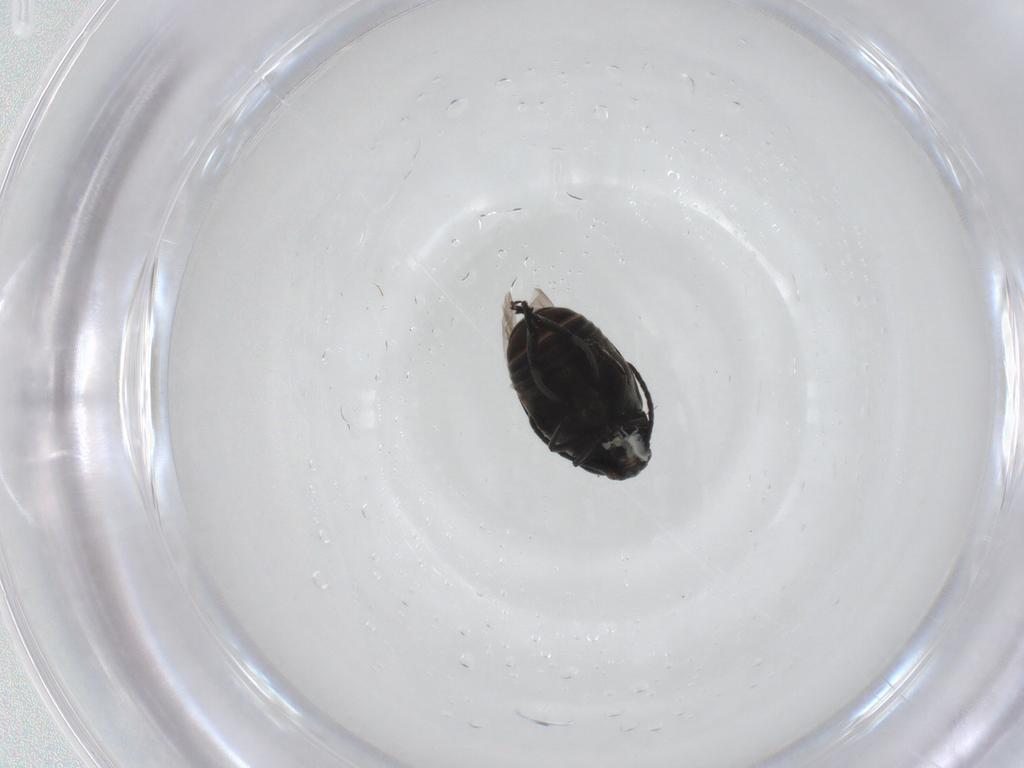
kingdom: Animalia
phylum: Arthropoda
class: Insecta
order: Coleoptera
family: Chrysomelidae
